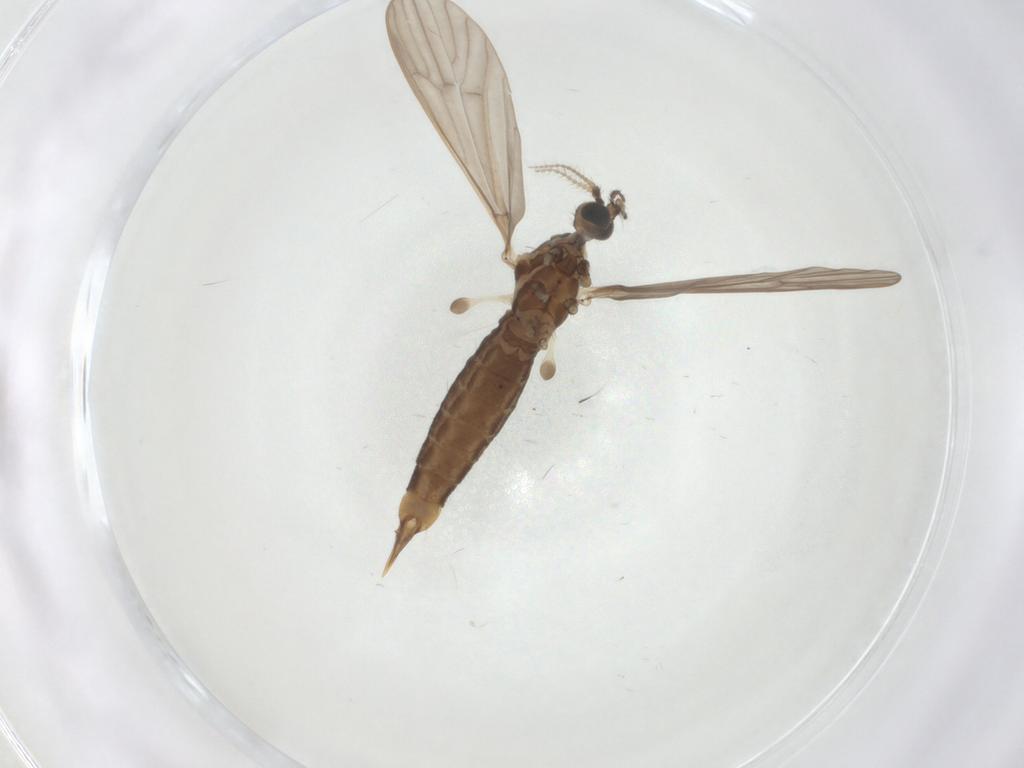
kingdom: Animalia
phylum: Arthropoda
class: Insecta
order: Diptera
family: Limoniidae
